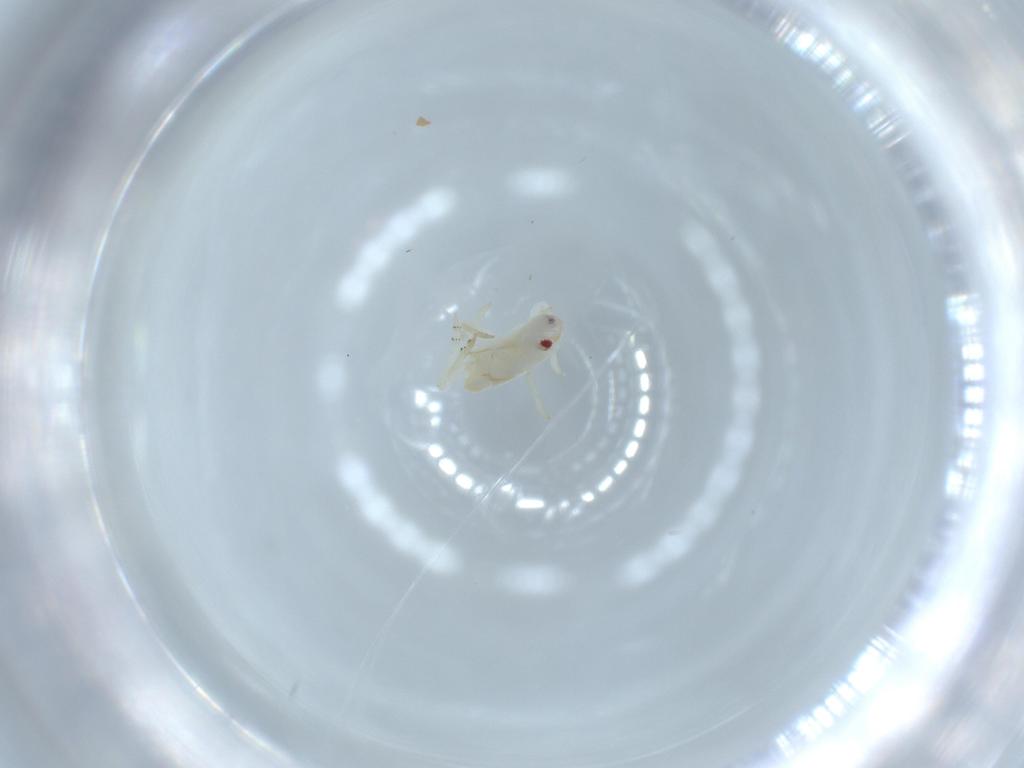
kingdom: Animalia
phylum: Arthropoda
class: Insecta
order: Hemiptera
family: Flatidae
